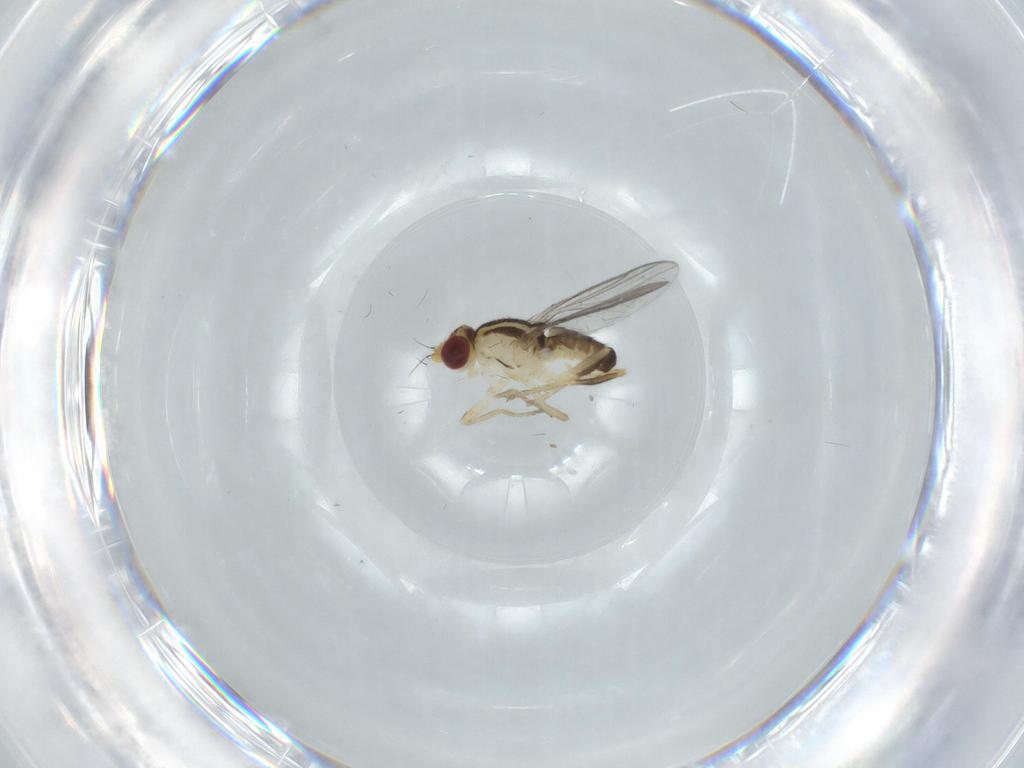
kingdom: Animalia
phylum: Arthropoda
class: Insecta
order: Diptera
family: Chloropidae
